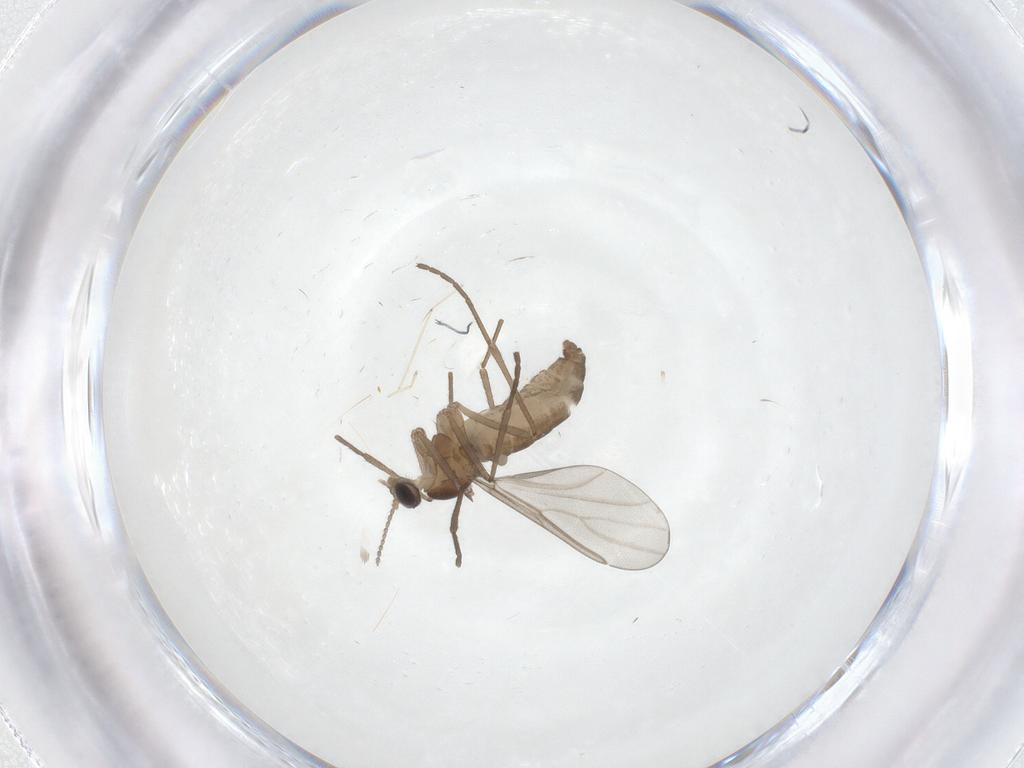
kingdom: Animalia
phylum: Arthropoda
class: Insecta
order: Diptera
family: Cecidomyiidae
